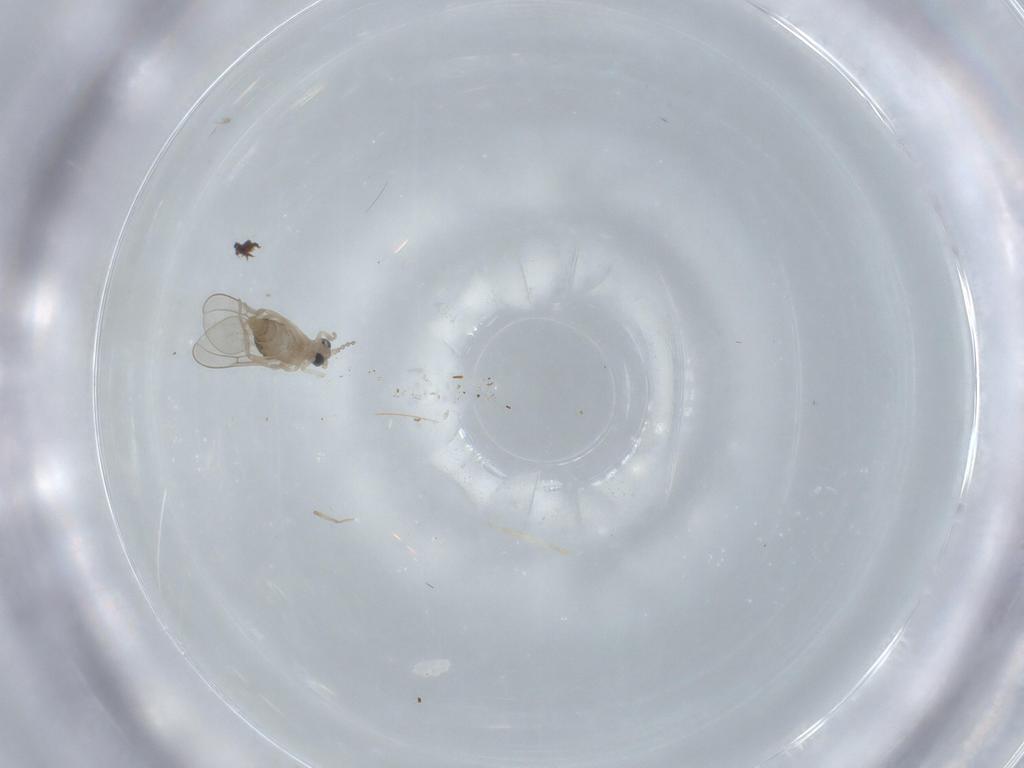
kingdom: Animalia
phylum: Arthropoda
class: Insecta
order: Diptera
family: Cecidomyiidae
